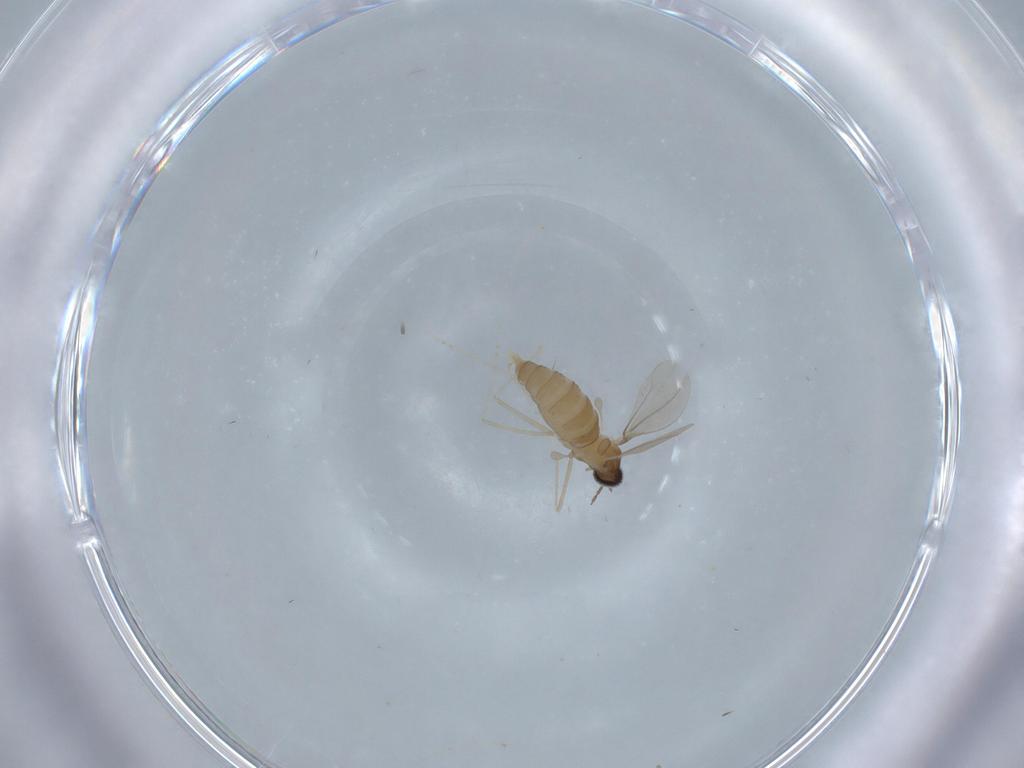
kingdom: Animalia
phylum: Arthropoda
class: Insecta
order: Diptera
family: Cecidomyiidae
